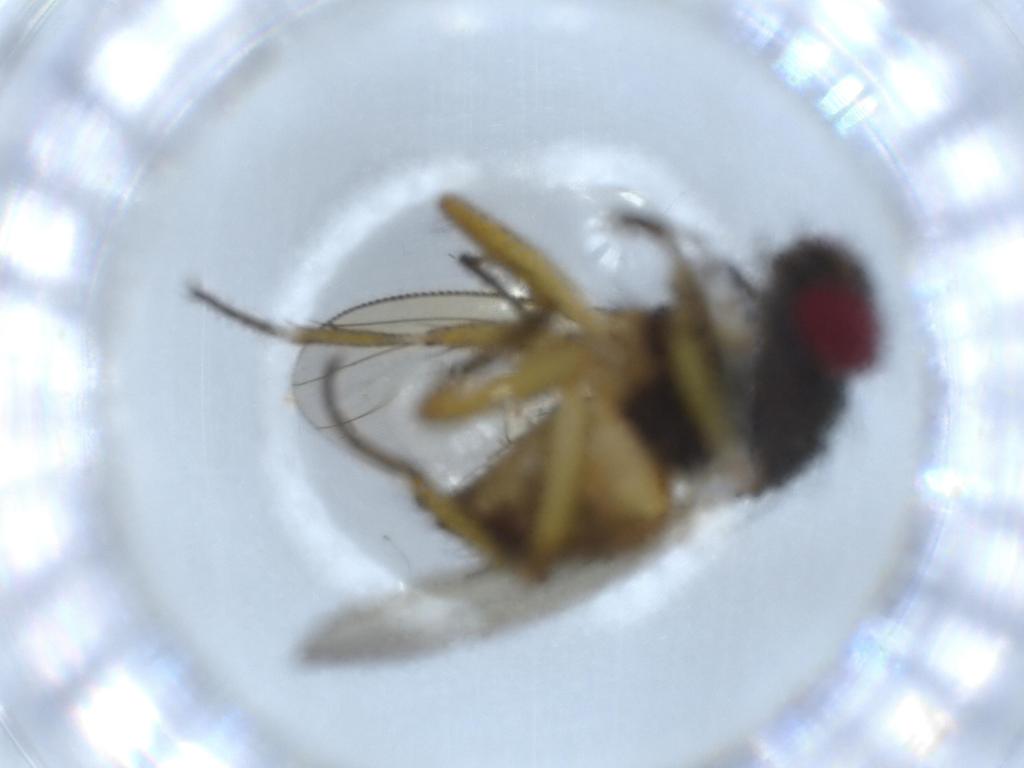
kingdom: Animalia
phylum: Arthropoda
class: Insecta
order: Diptera
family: Muscidae
